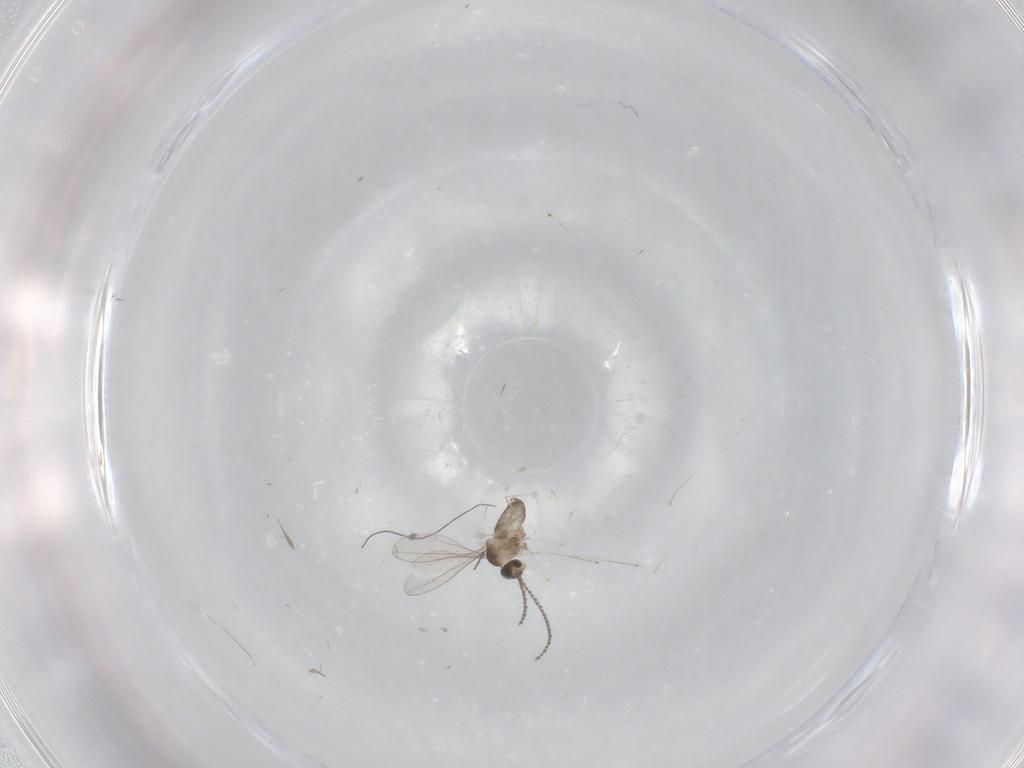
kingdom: Animalia
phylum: Arthropoda
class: Insecta
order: Diptera
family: Cecidomyiidae
